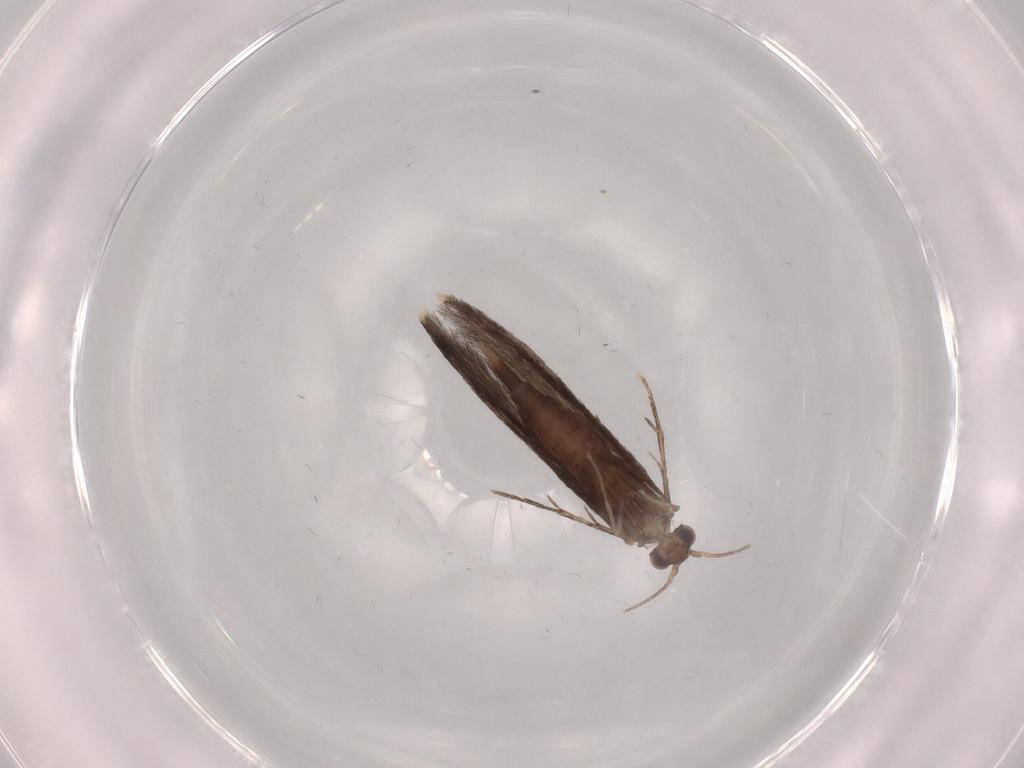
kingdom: Animalia
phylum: Arthropoda
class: Insecta
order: Trichoptera
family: Xiphocentronidae
